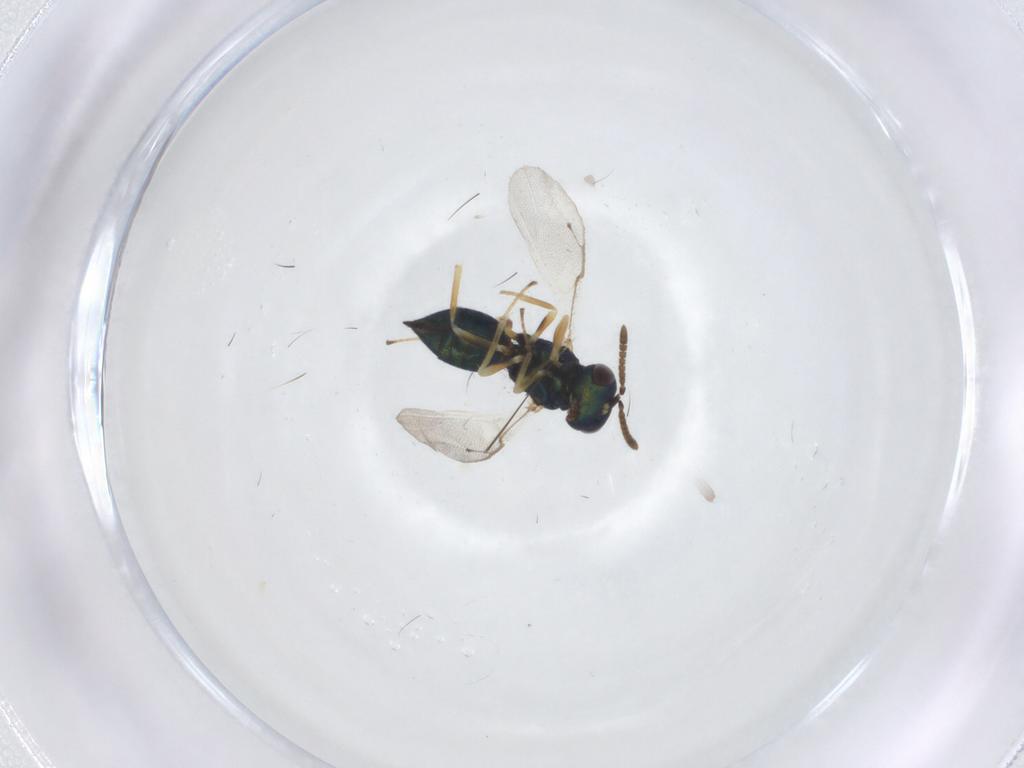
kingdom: Animalia
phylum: Arthropoda
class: Insecta
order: Hymenoptera
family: Pteromalidae
